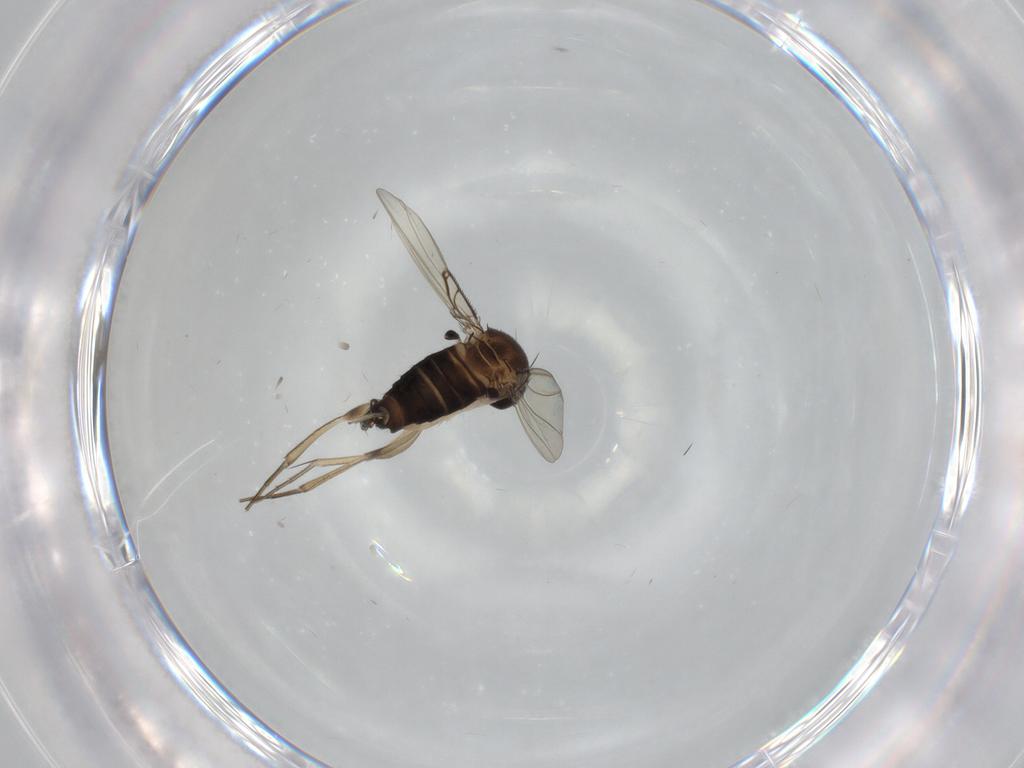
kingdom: Animalia
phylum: Arthropoda
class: Insecta
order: Diptera
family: Phoridae
